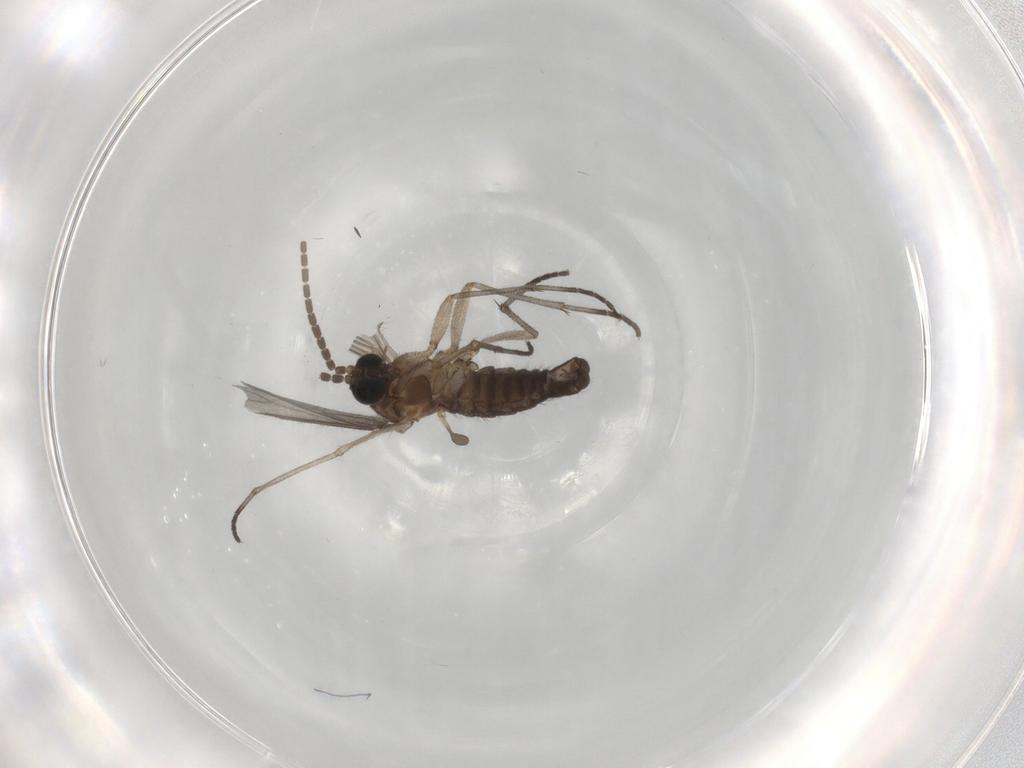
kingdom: Animalia
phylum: Arthropoda
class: Insecta
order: Diptera
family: Sciaridae
